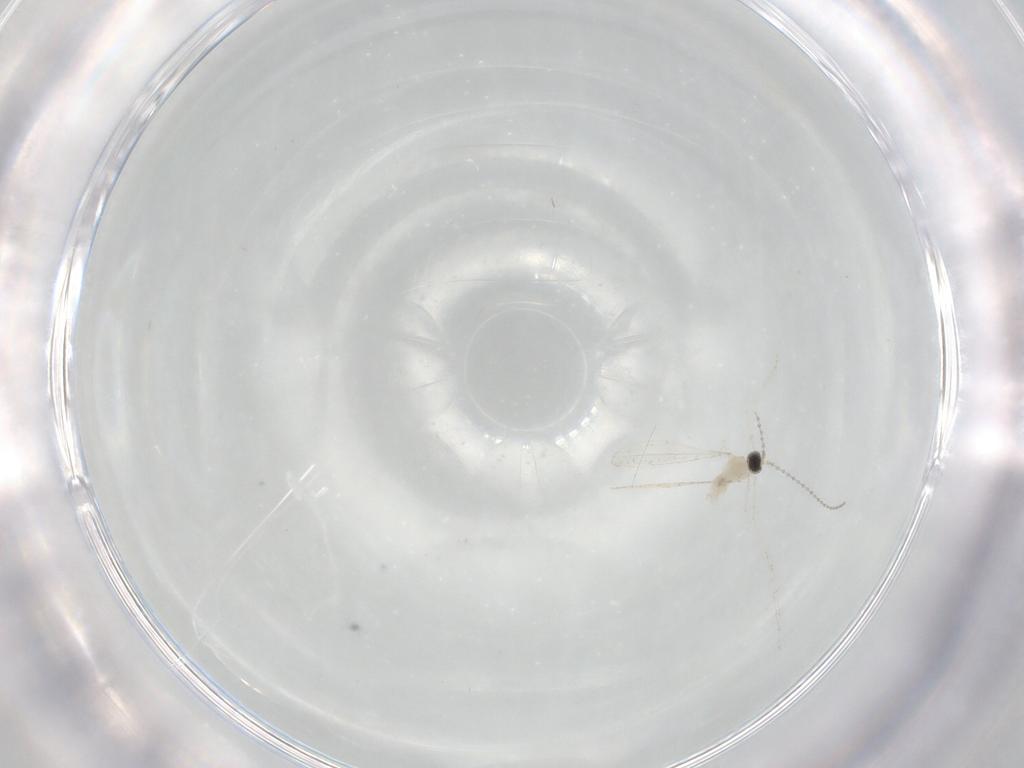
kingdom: Animalia
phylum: Arthropoda
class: Insecta
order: Diptera
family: Cecidomyiidae
